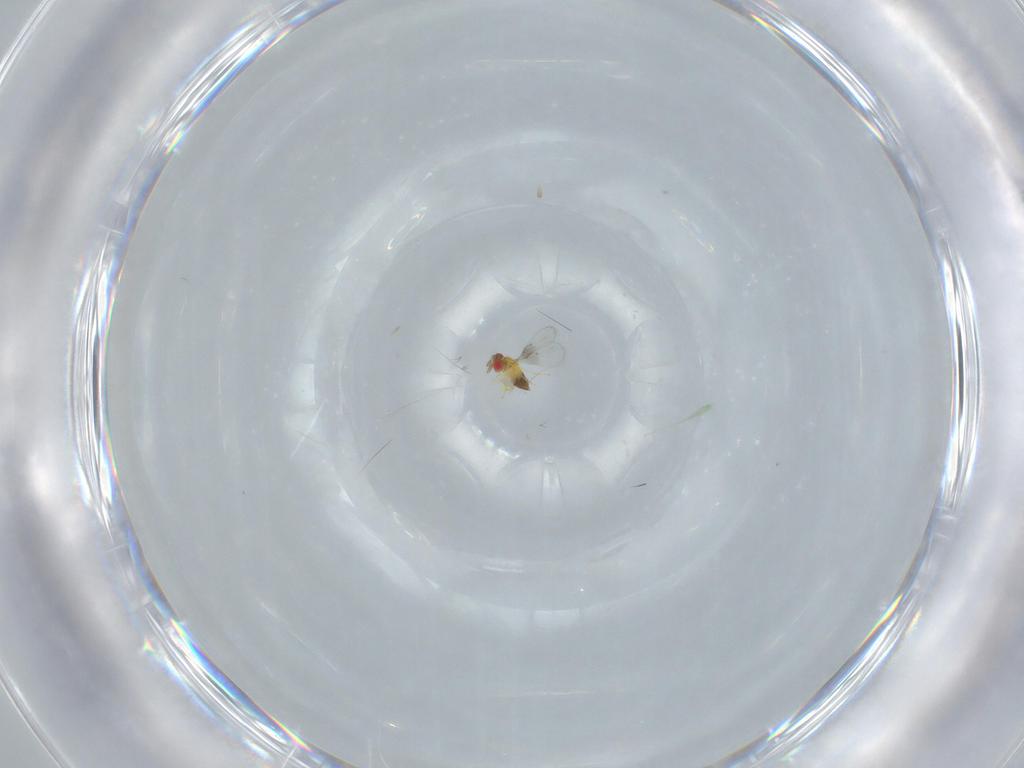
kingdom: Animalia
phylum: Arthropoda
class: Insecta
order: Hymenoptera
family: Trichogrammatidae
